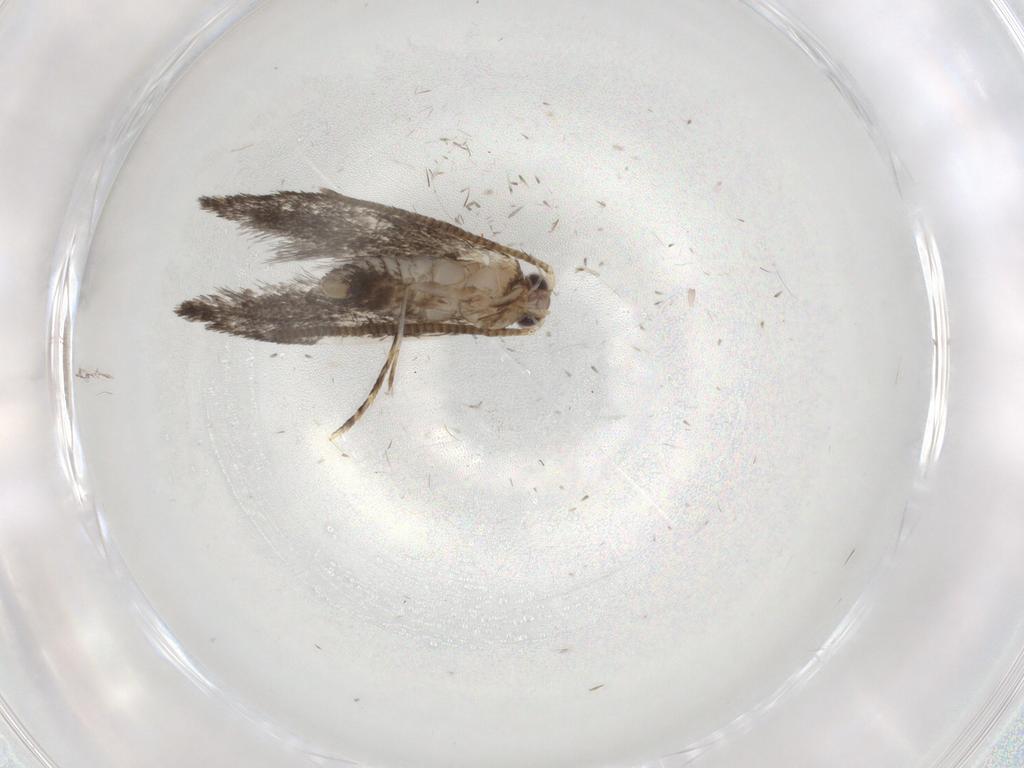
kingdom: Animalia
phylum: Arthropoda
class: Insecta
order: Lepidoptera
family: Tineidae
